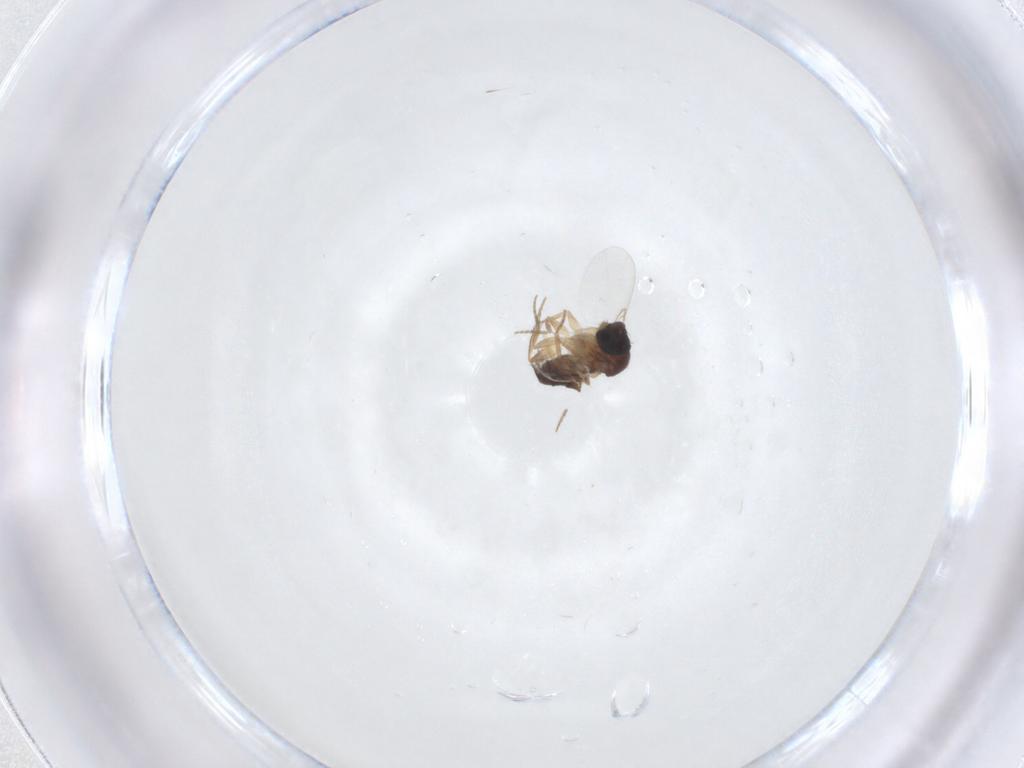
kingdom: Animalia
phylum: Arthropoda
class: Insecta
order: Diptera
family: Phoridae
